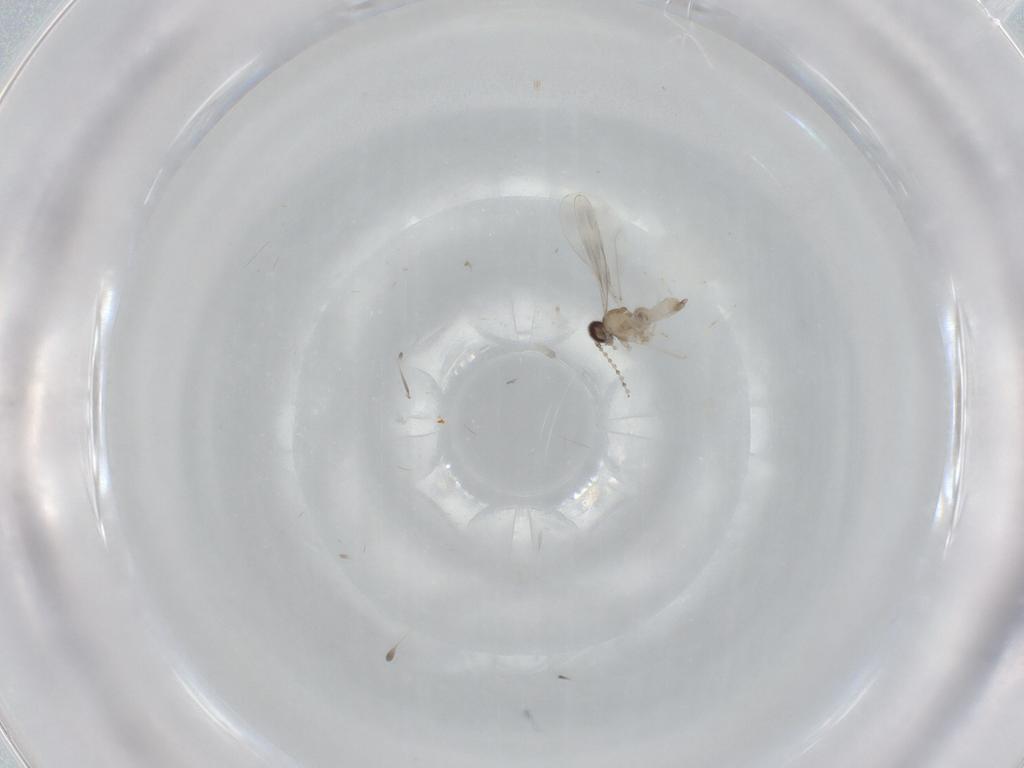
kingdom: Animalia
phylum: Arthropoda
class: Insecta
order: Diptera
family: Cecidomyiidae
